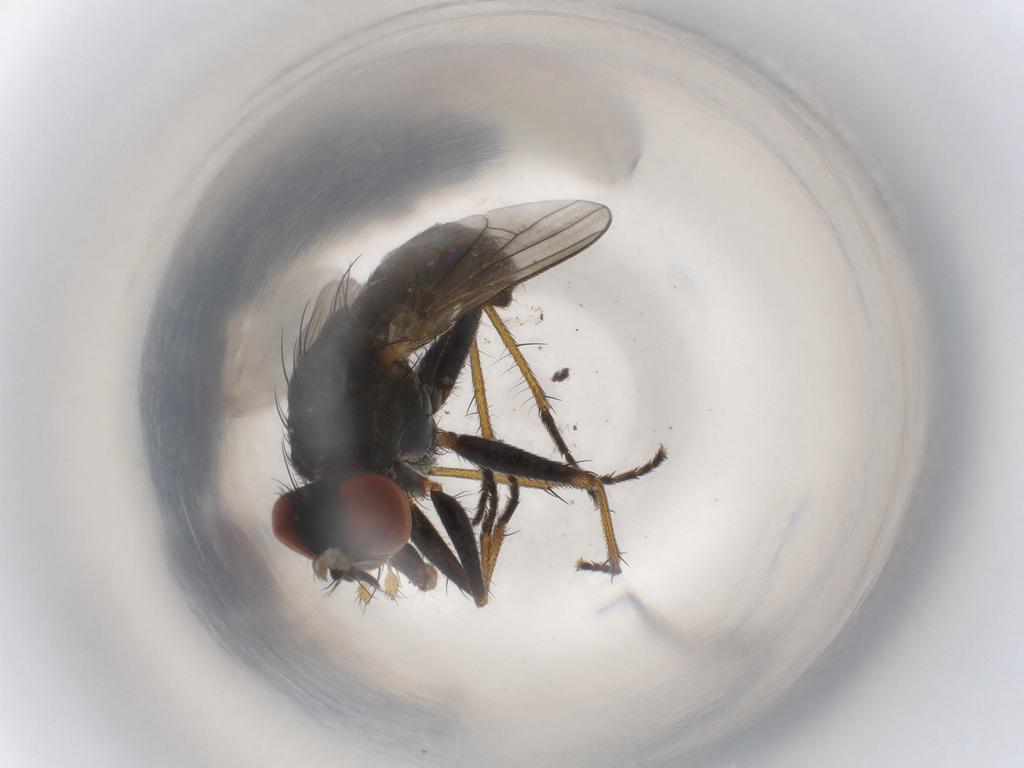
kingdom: Animalia
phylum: Arthropoda
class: Insecta
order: Diptera
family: Muscidae
